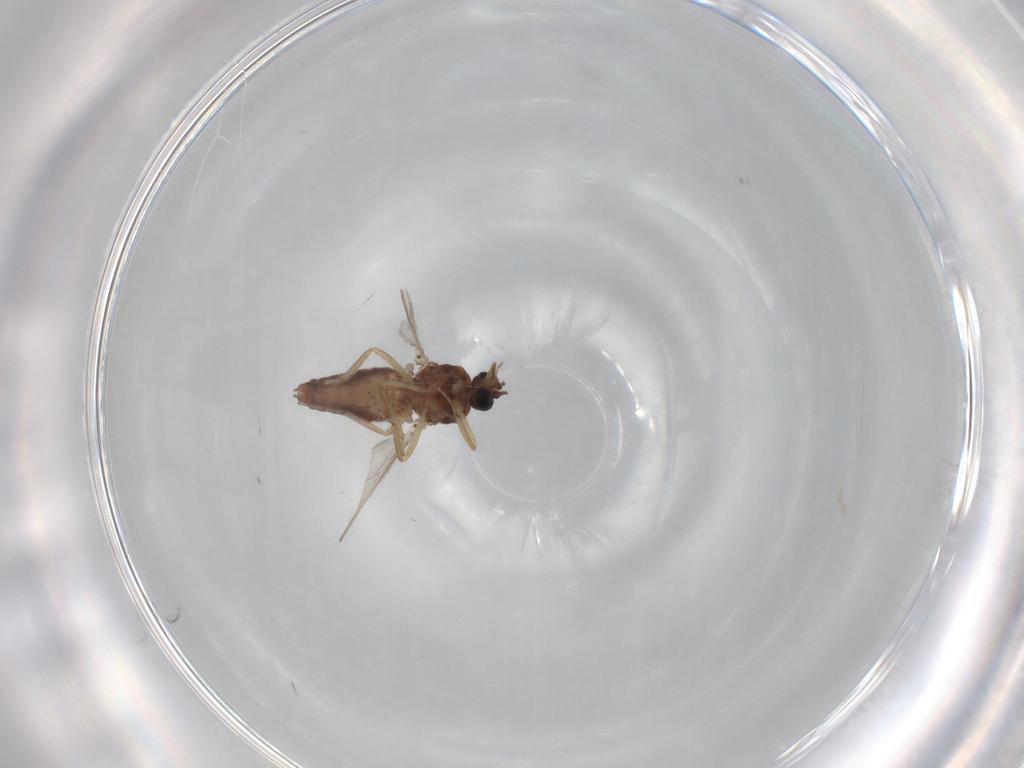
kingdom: Animalia
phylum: Arthropoda
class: Insecta
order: Diptera
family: Ceratopogonidae
